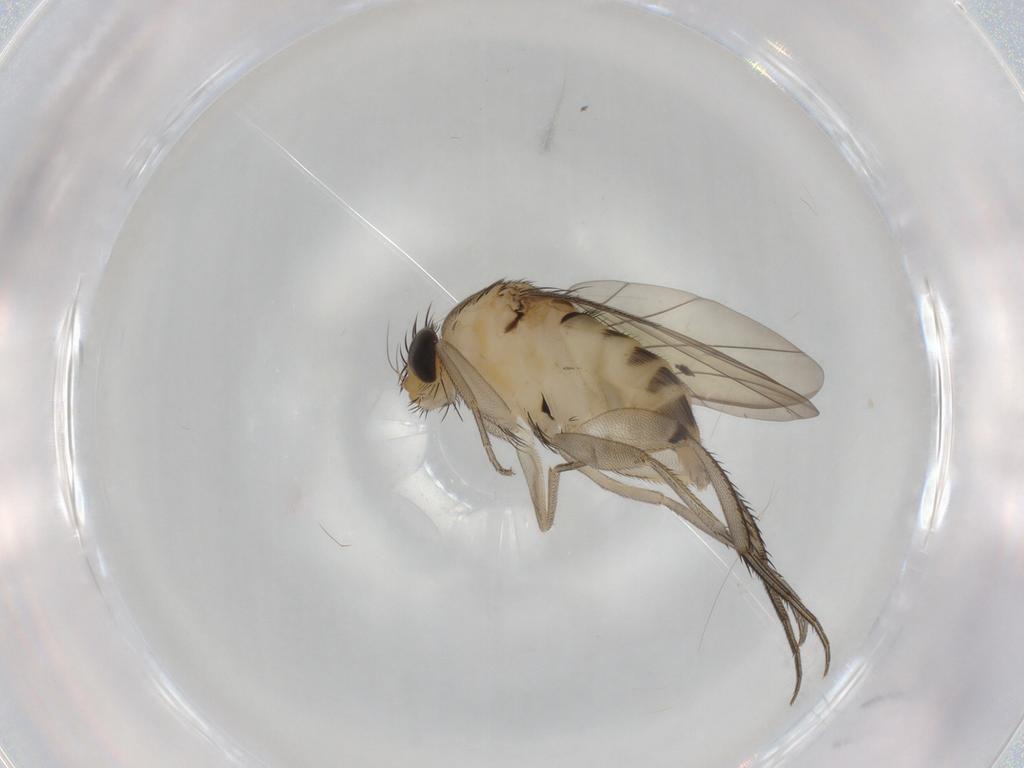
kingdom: Animalia
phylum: Arthropoda
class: Insecta
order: Diptera
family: Phoridae
